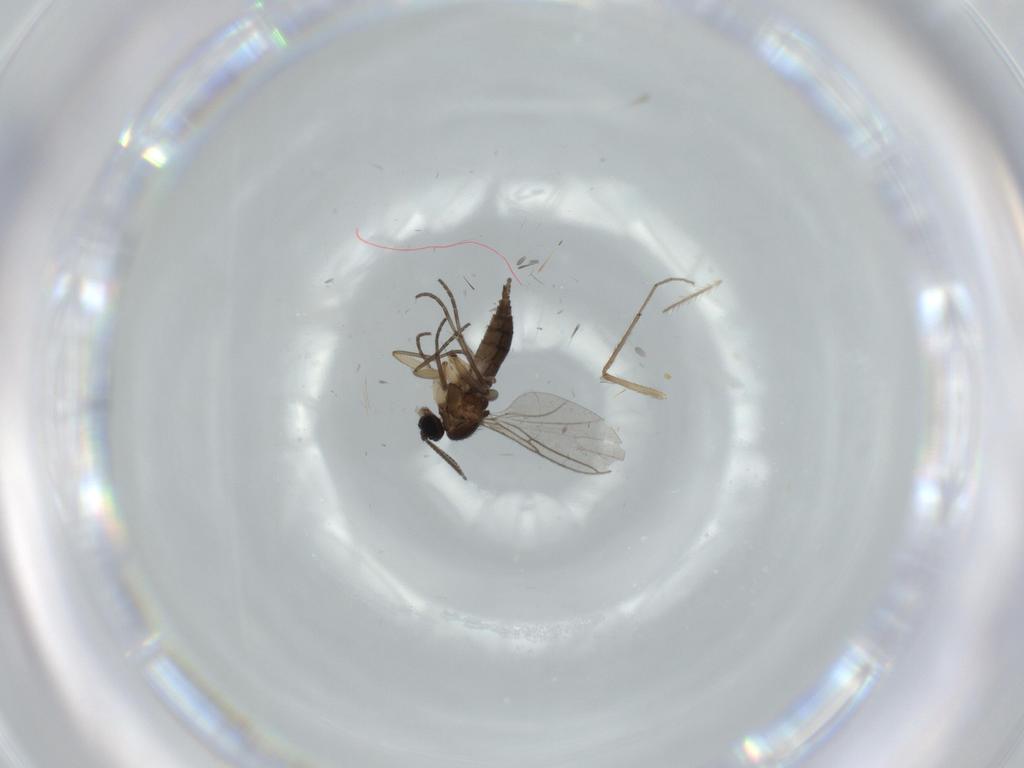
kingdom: Animalia
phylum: Arthropoda
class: Insecta
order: Diptera
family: Sciaridae
